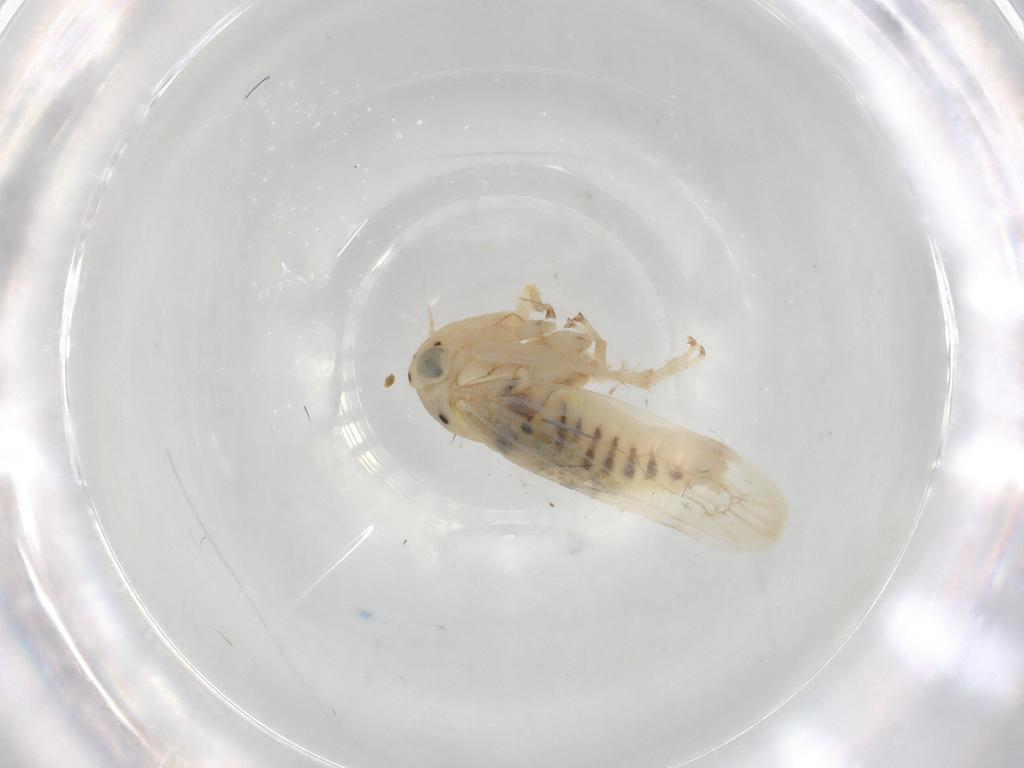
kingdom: Animalia
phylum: Arthropoda
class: Insecta
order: Hemiptera
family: Cicadellidae
